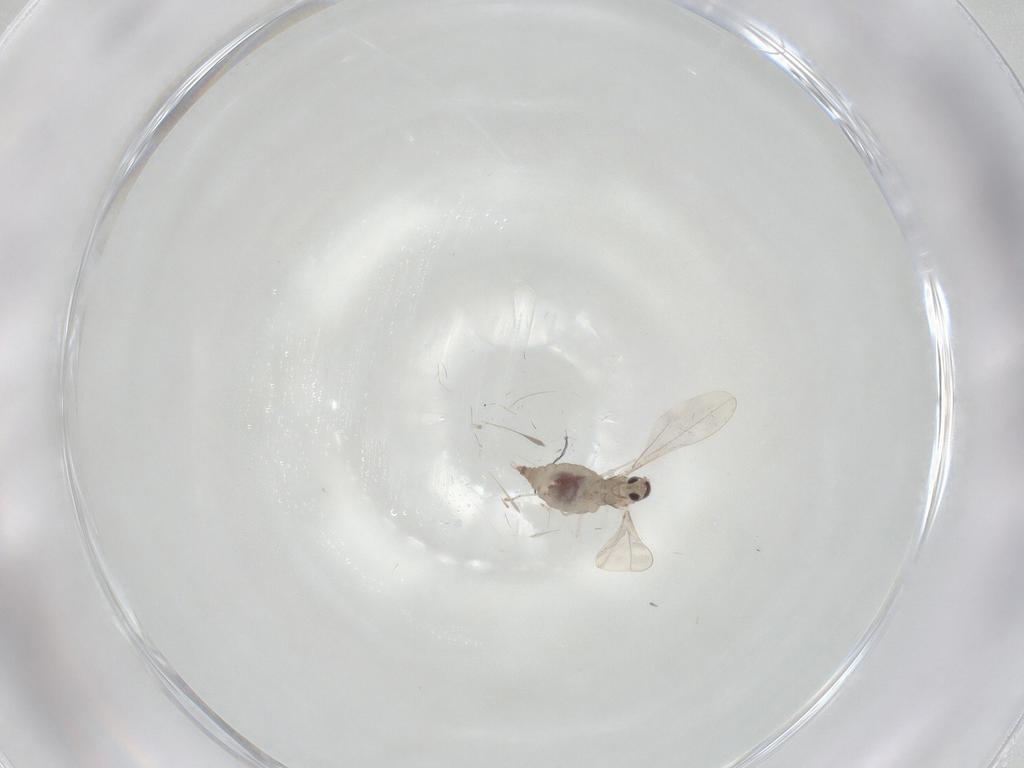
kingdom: Animalia
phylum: Arthropoda
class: Insecta
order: Diptera
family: Cecidomyiidae
